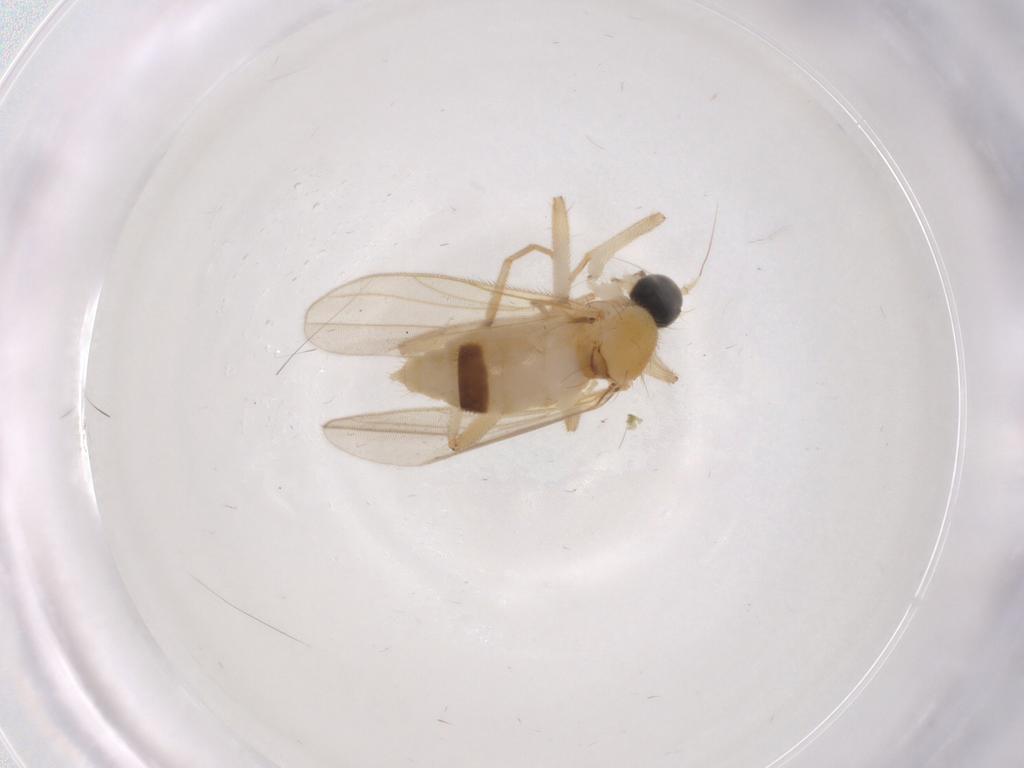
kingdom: Animalia
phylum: Arthropoda
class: Insecta
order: Diptera
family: Hybotidae
